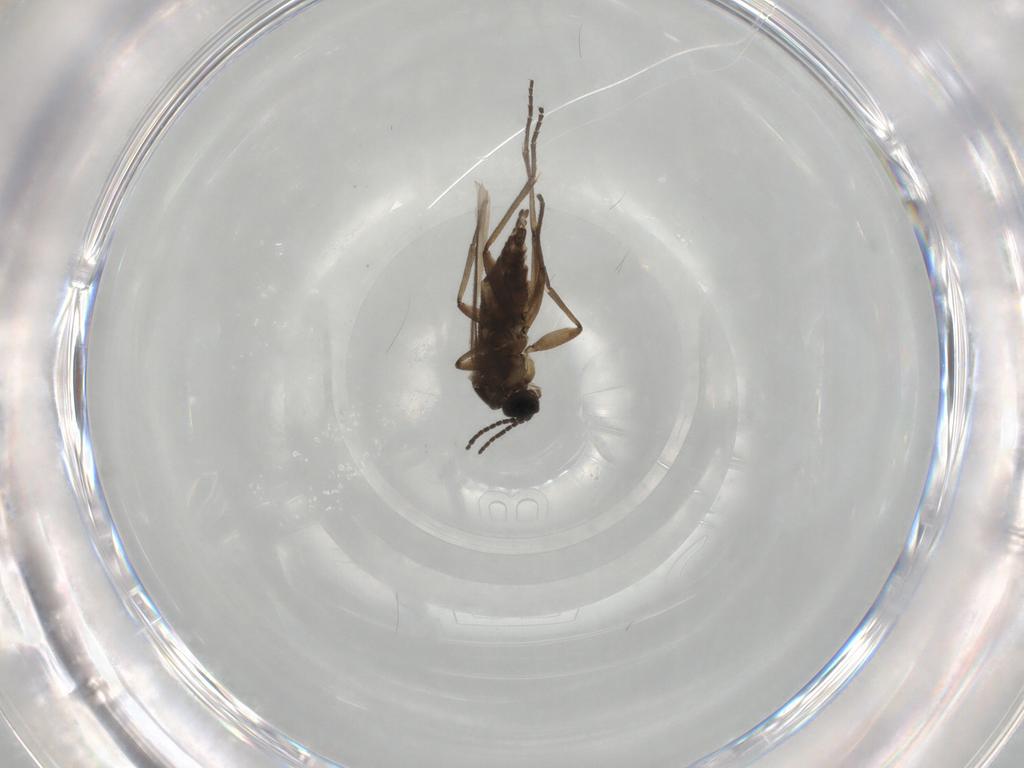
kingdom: Animalia
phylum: Arthropoda
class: Insecta
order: Diptera
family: Sciaridae
